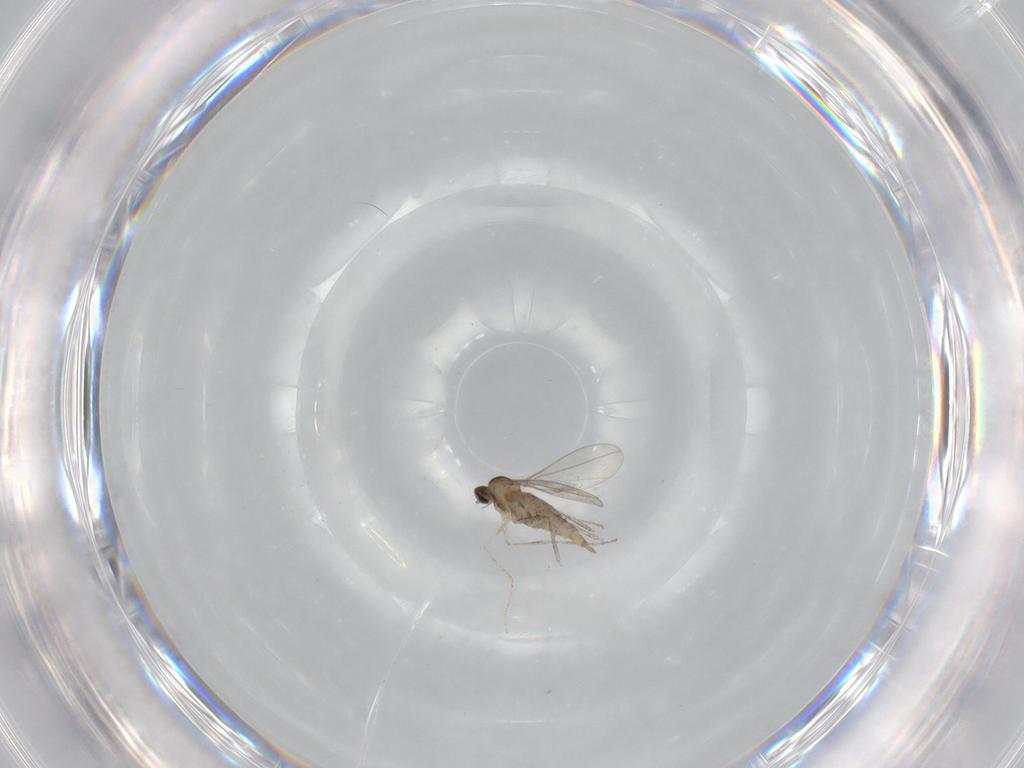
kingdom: Animalia
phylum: Arthropoda
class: Insecta
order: Diptera
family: Cecidomyiidae
